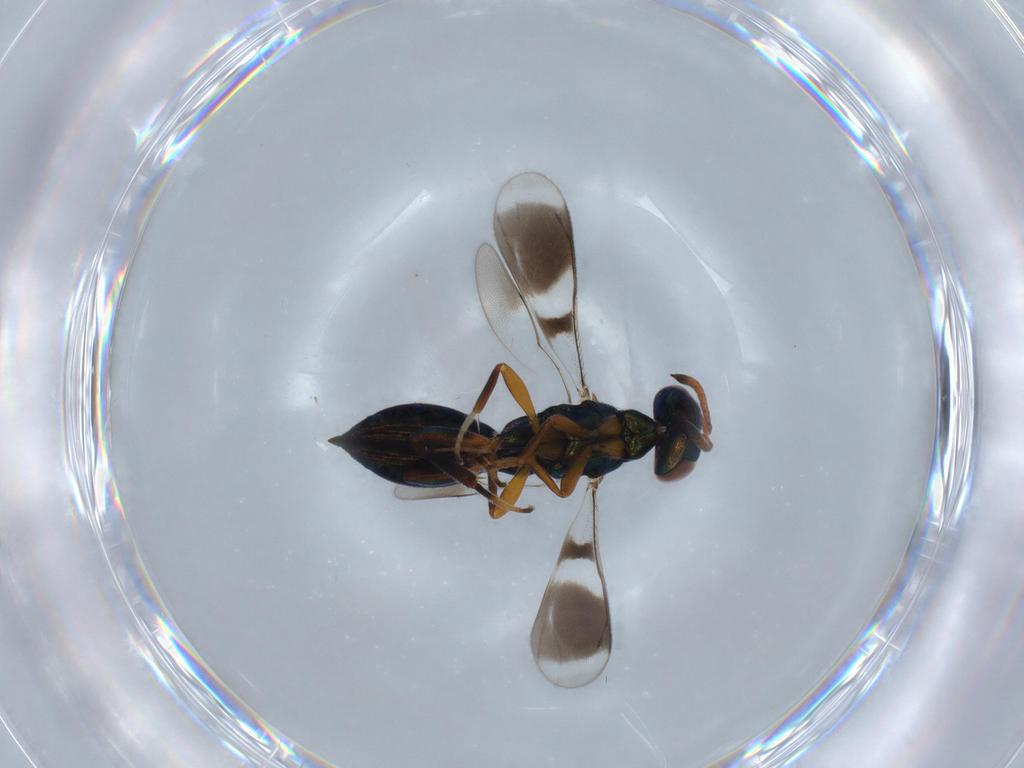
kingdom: Animalia
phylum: Arthropoda
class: Insecta
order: Hymenoptera
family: Cleonyminae
